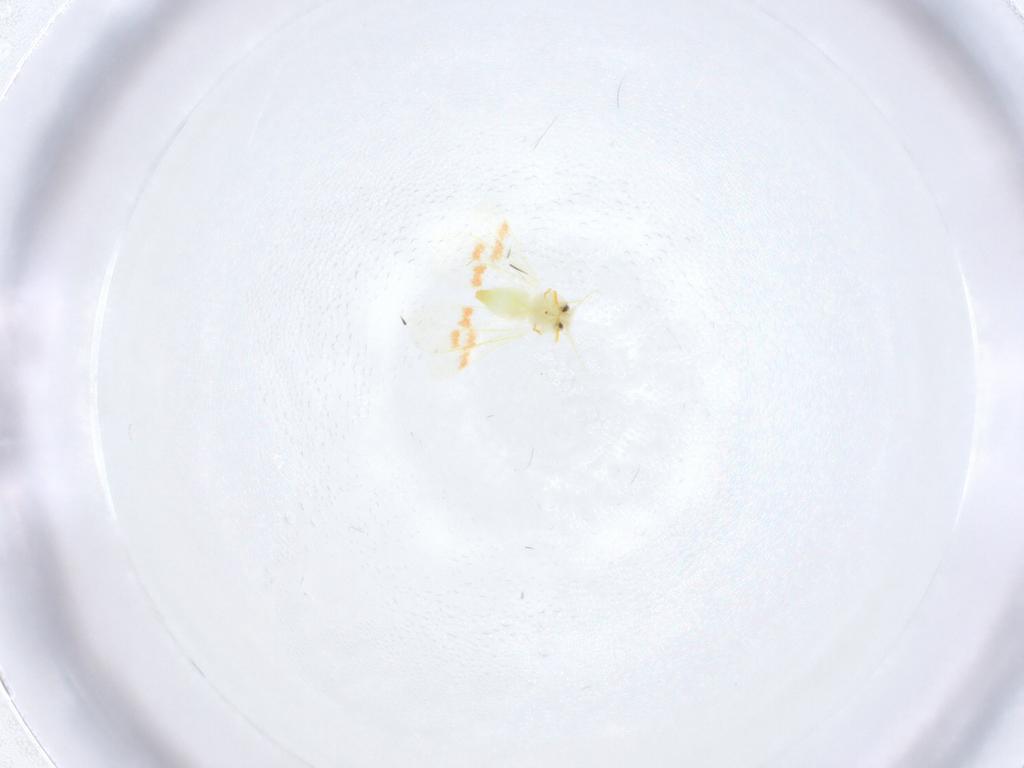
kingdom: Animalia
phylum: Arthropoda
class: Insecta
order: Hemiptera
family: Aleyrodidae
